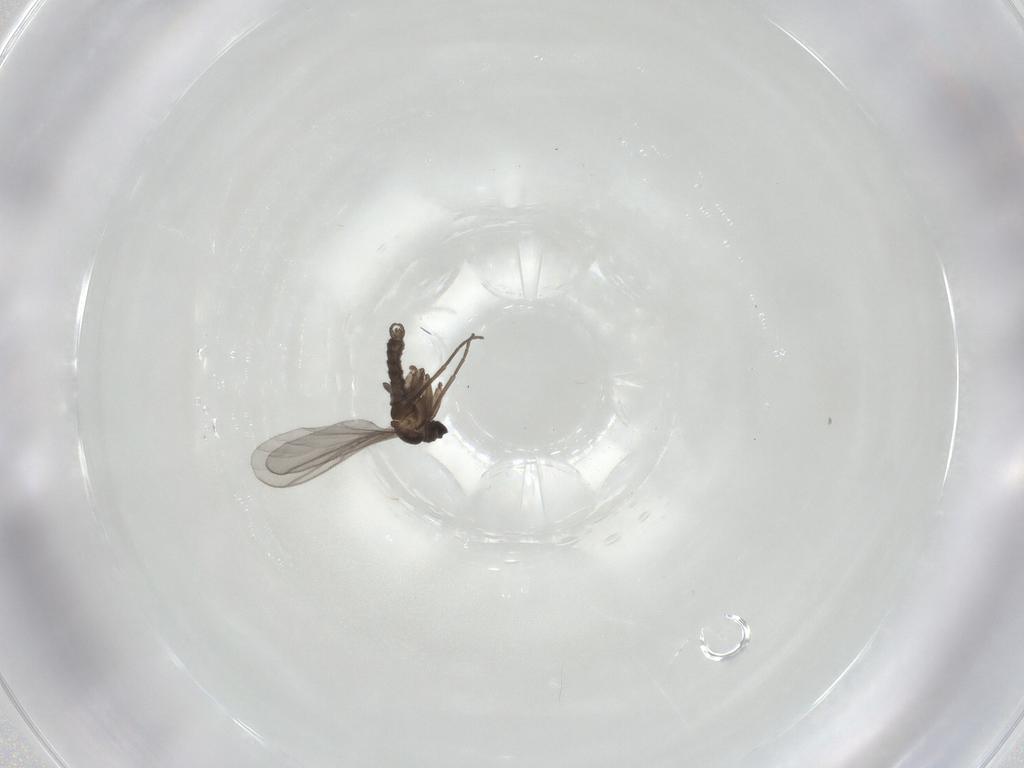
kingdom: Animalia
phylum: Arthropoda
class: Insecta
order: Diptera
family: Sciaridae
